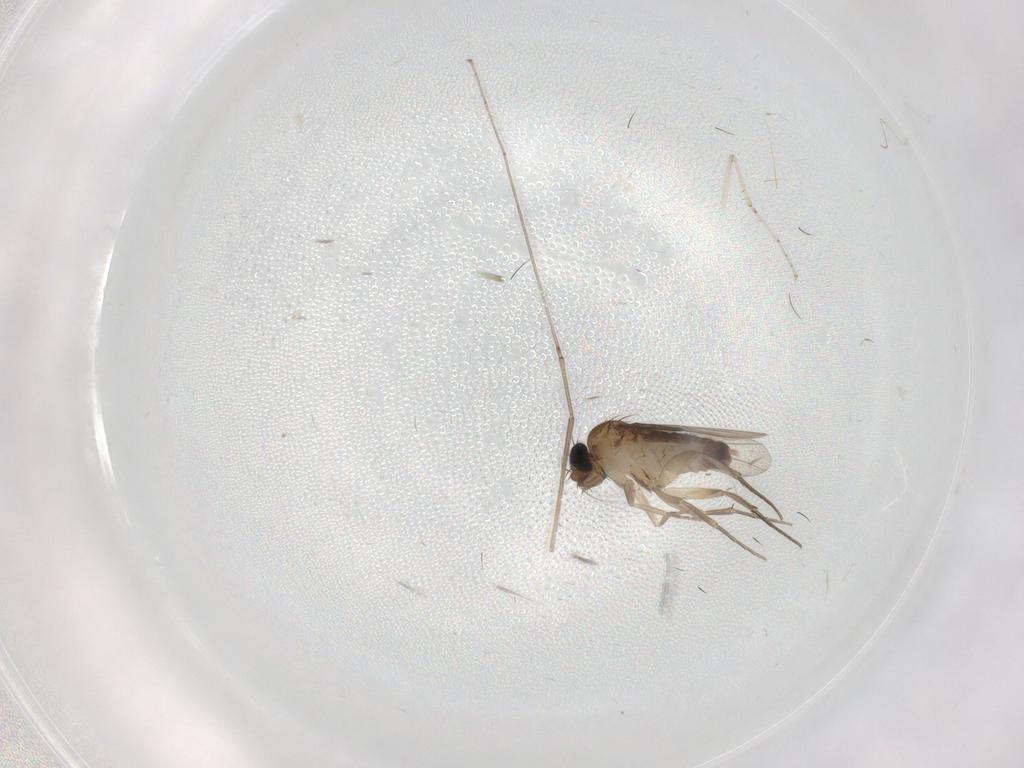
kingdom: Animalia
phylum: Arthropoda
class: Insecta
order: Diptera
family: Phoridae
